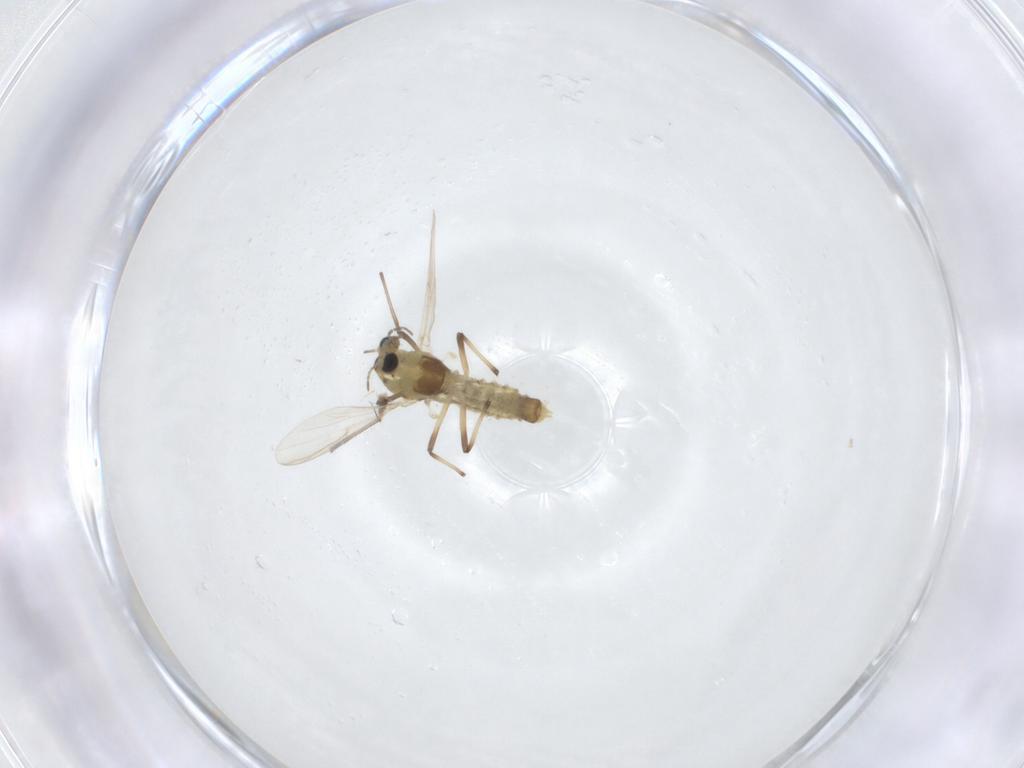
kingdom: Animalia
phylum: Arthropoda
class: Insecta
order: Diptera
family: Chironomidae
